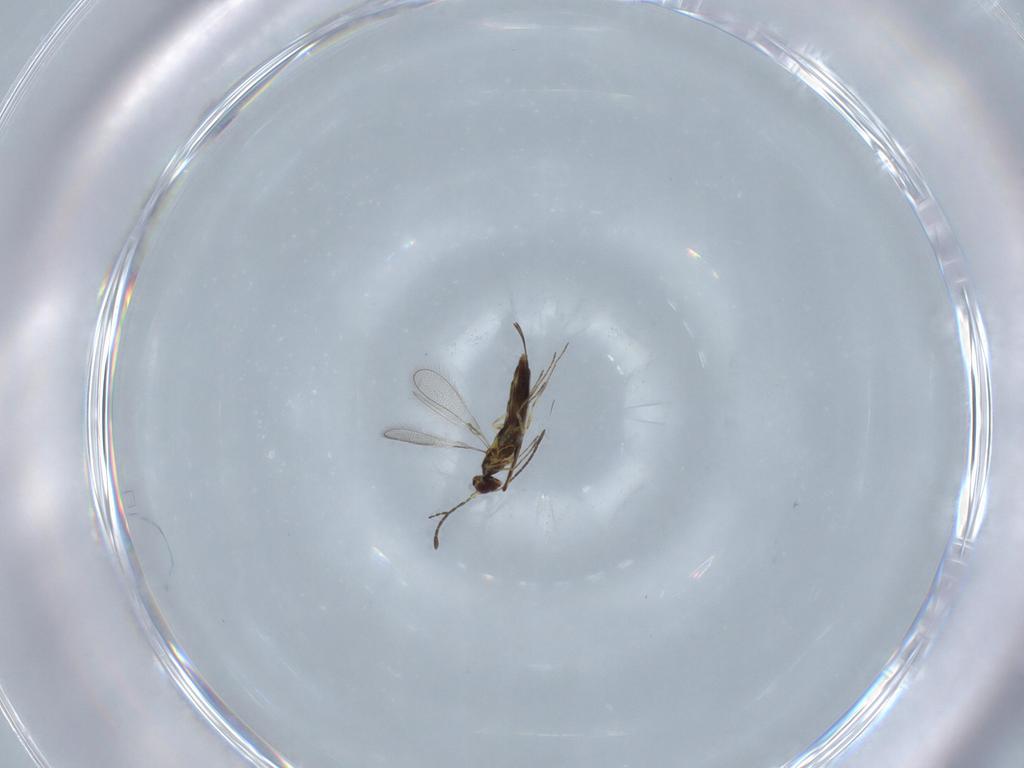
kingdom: Animalia
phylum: Arthropoda
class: Insecta
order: Hymenoptera
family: Mymaridae
